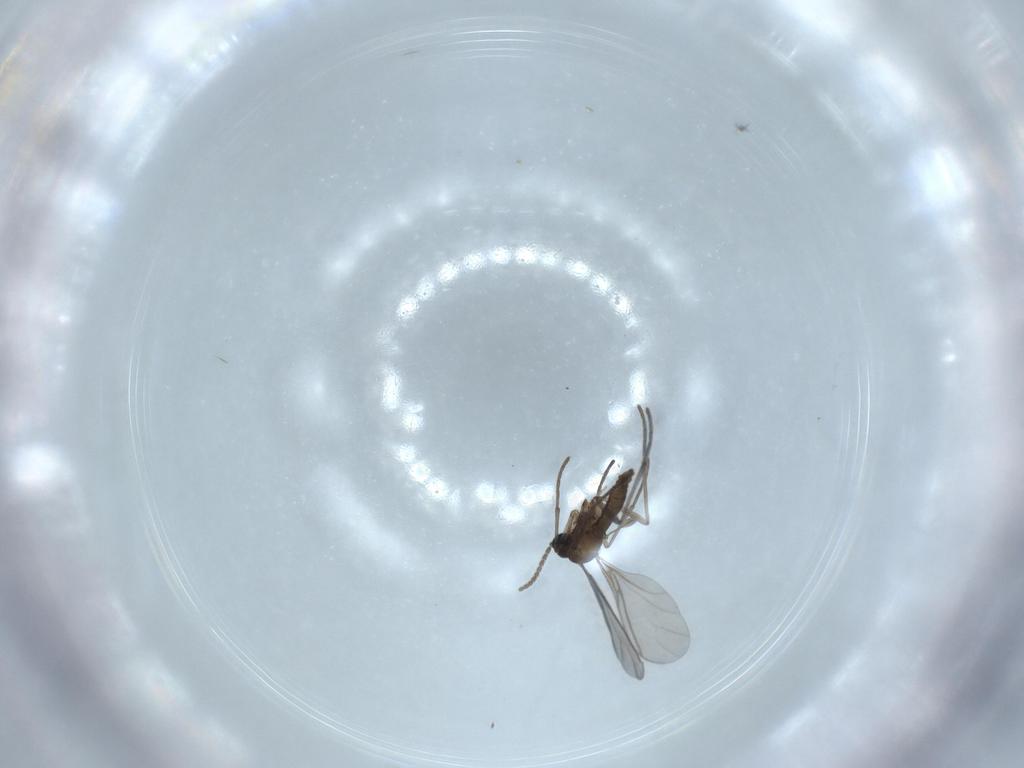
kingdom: Animalia
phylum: Arthropoda
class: Insecta
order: Diptera
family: Sciaridae
